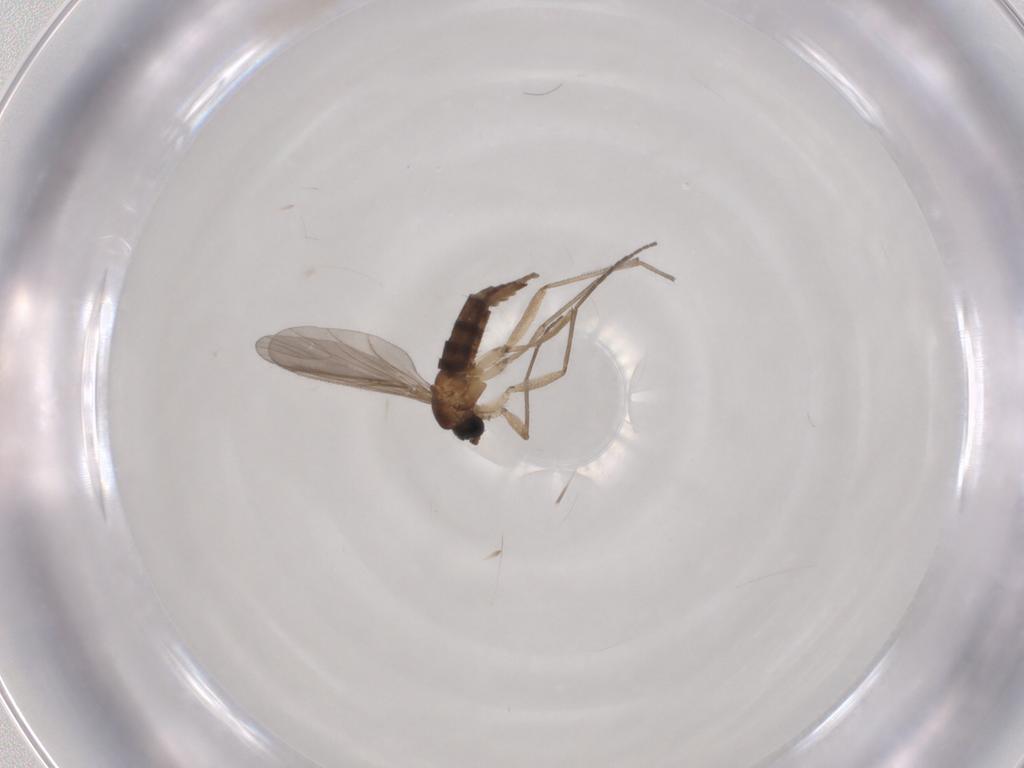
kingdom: Animalia
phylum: Arthropoda
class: Insecta
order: Diptera
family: Sciaridae
